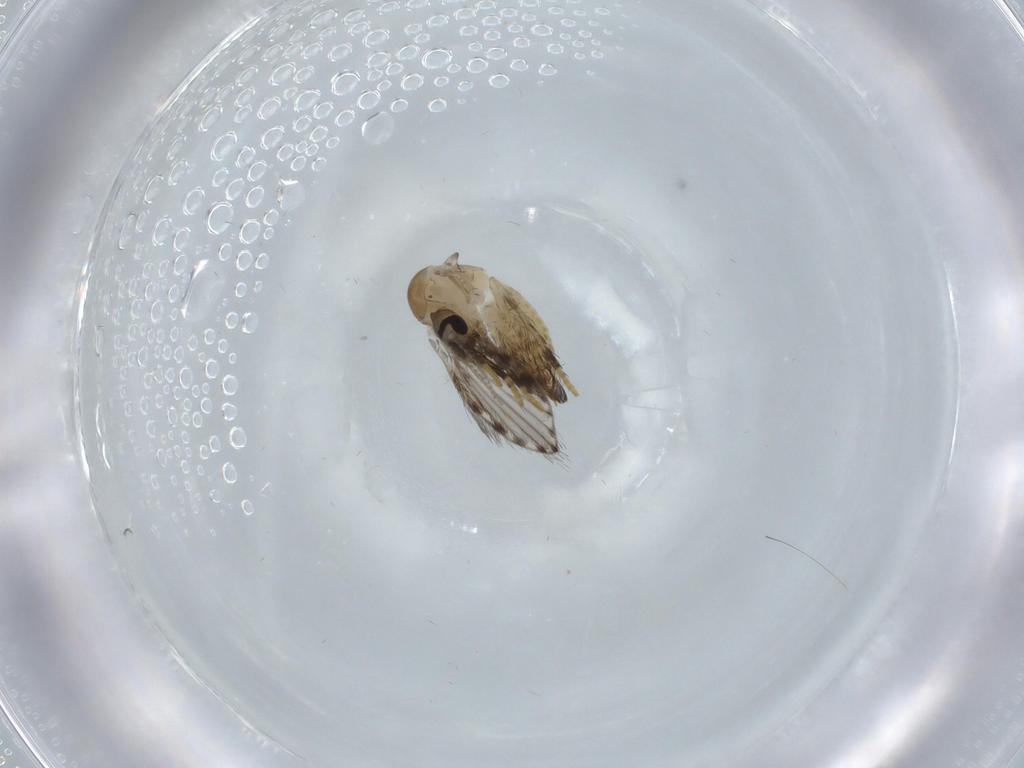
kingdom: Animalia
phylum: Arthropoda
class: Insecta
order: Diptera
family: Psychodidae
